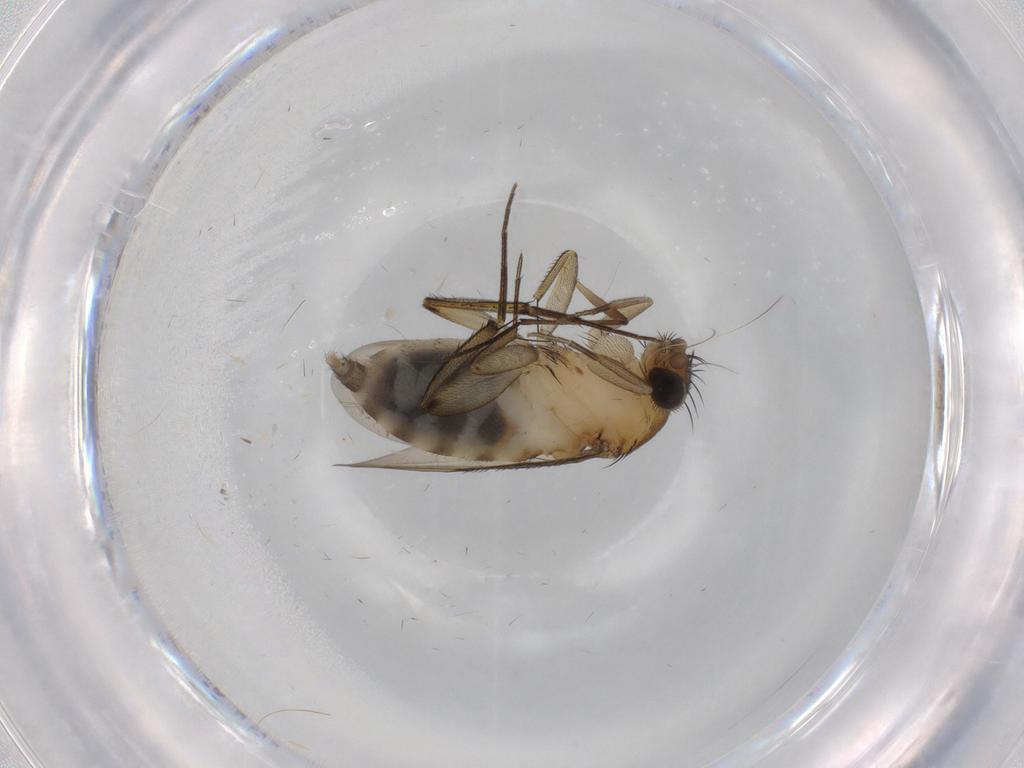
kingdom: Animalia
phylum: Arthropoda
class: Insecta
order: Diptera
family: Phoridae
